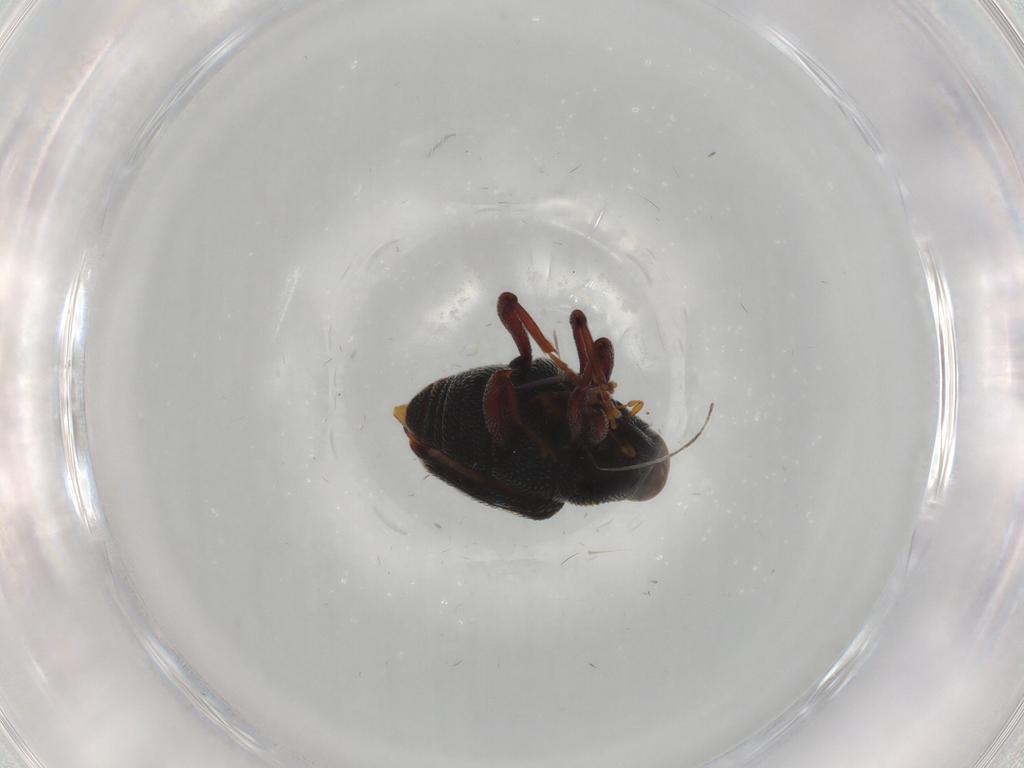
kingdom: Animalia
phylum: Arthropoda
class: Insecta
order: Coleoptera
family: Curculionidae
